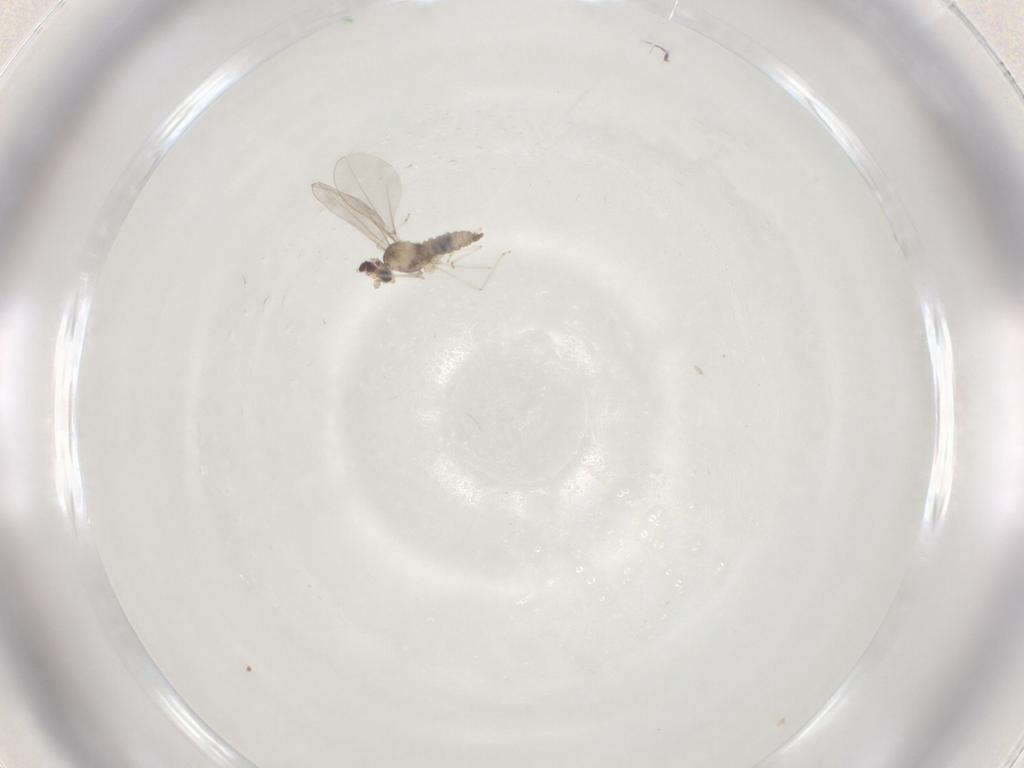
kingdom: Animalia
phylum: Arthropoda
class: Insecta
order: Diptera
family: Cecidomyiidae
